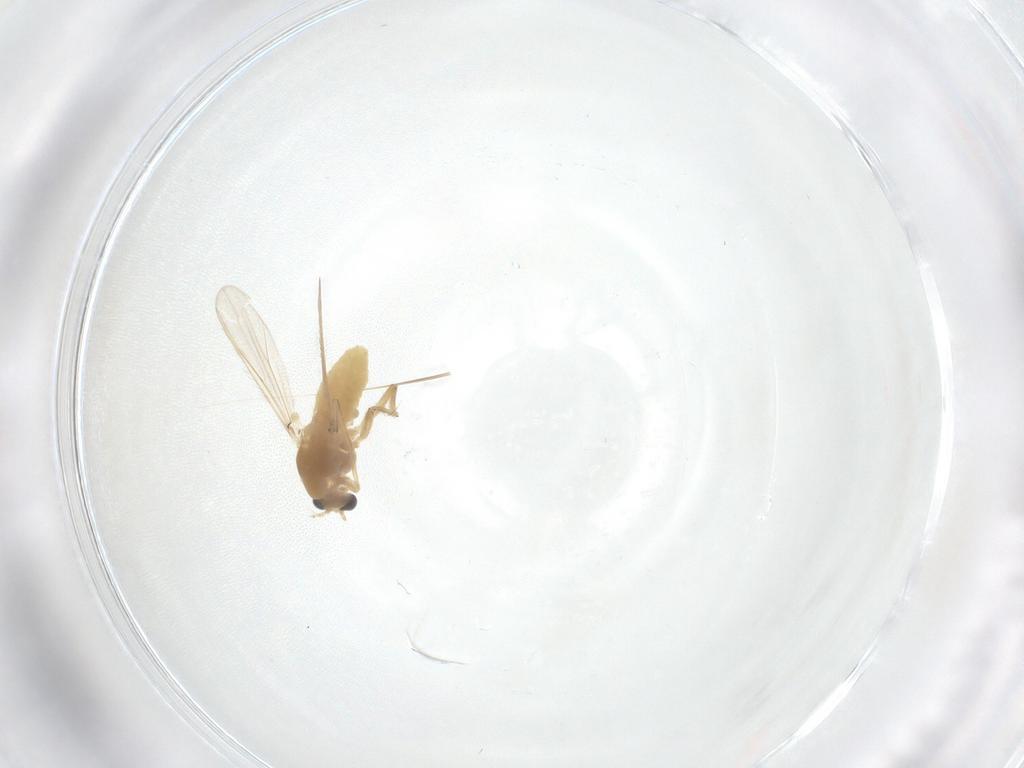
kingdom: Animalia
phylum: Arthropoda
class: Insecta
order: Diptera
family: Chironomidae
